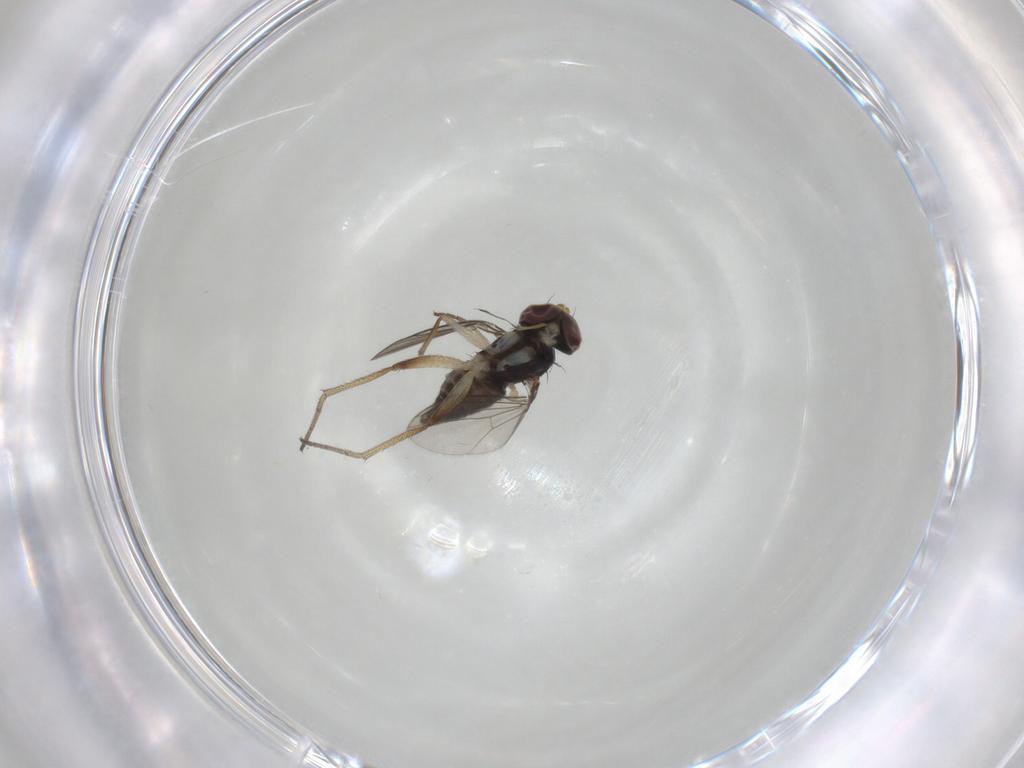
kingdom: Animalia
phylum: Arthropoda
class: Insecta
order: Diptera
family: Dolichopodidae
